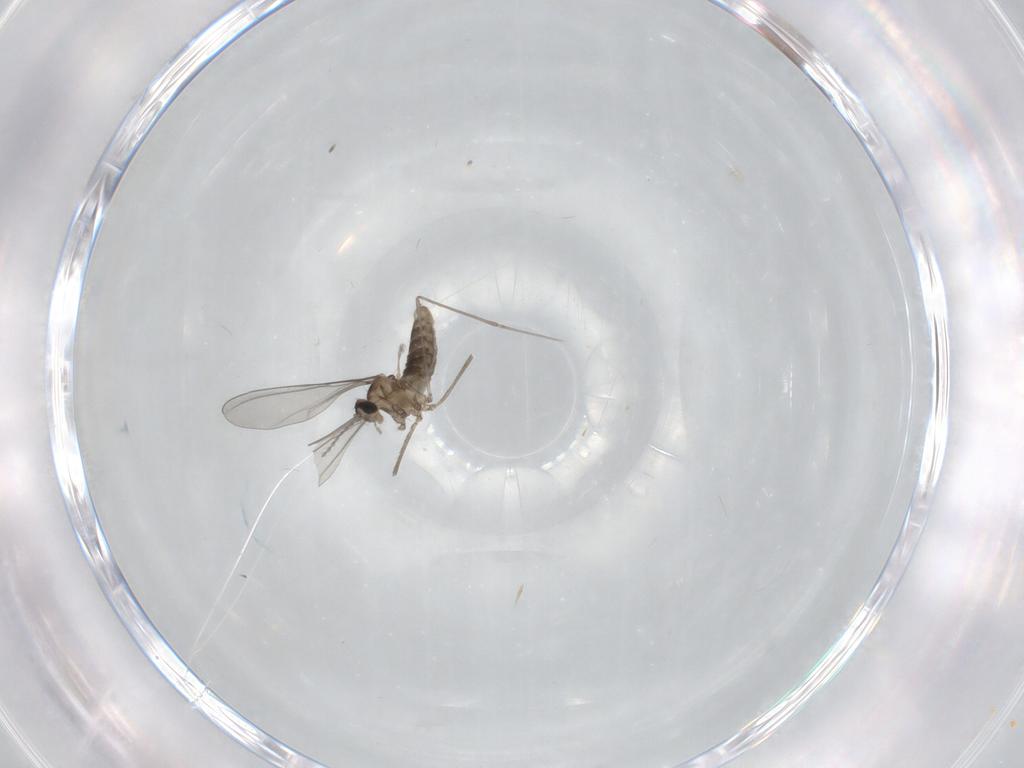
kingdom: Animalia
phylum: Arthropoda
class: Insecta
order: Diptera
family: Cecidomyiidae
